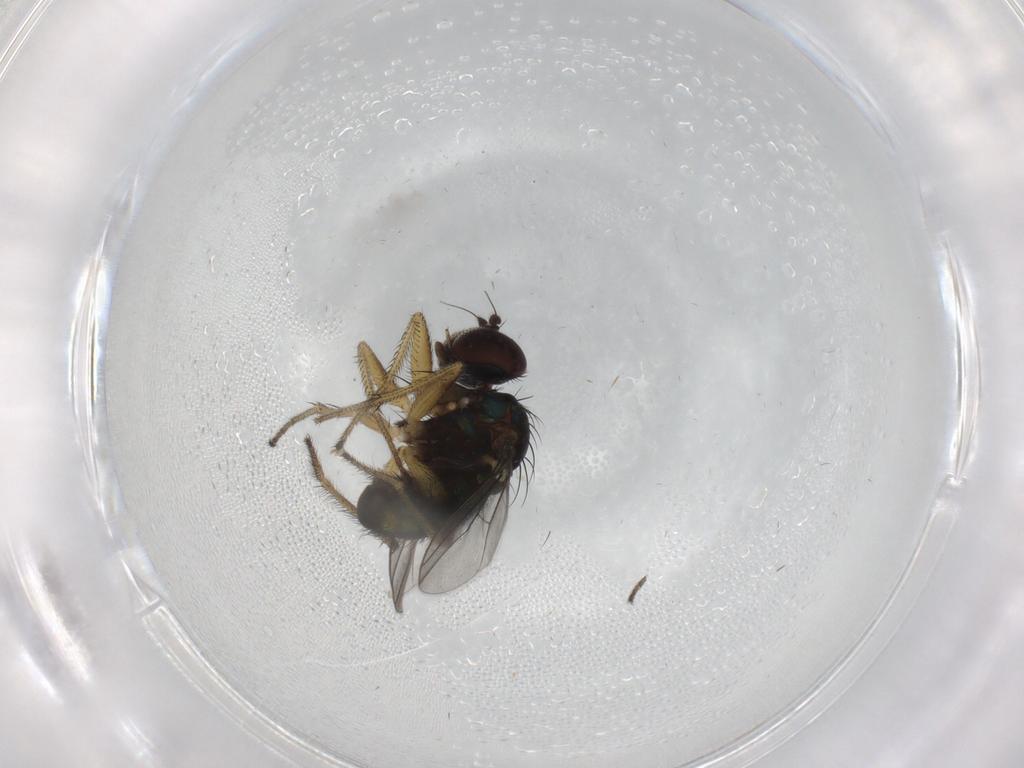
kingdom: Animalia
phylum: Arthropoda
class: Insecta
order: Diptera
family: Dolichopodidae
